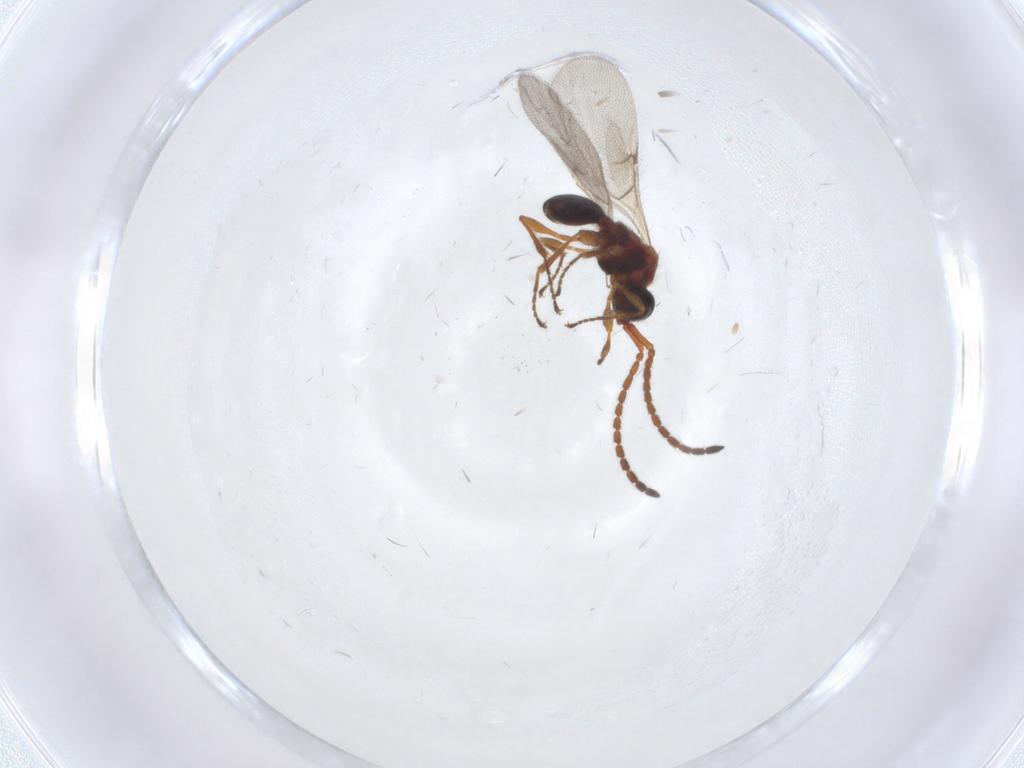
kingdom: Animalia
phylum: Arthropoda
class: Insecta
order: Hymenoptera
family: Diapriidae
